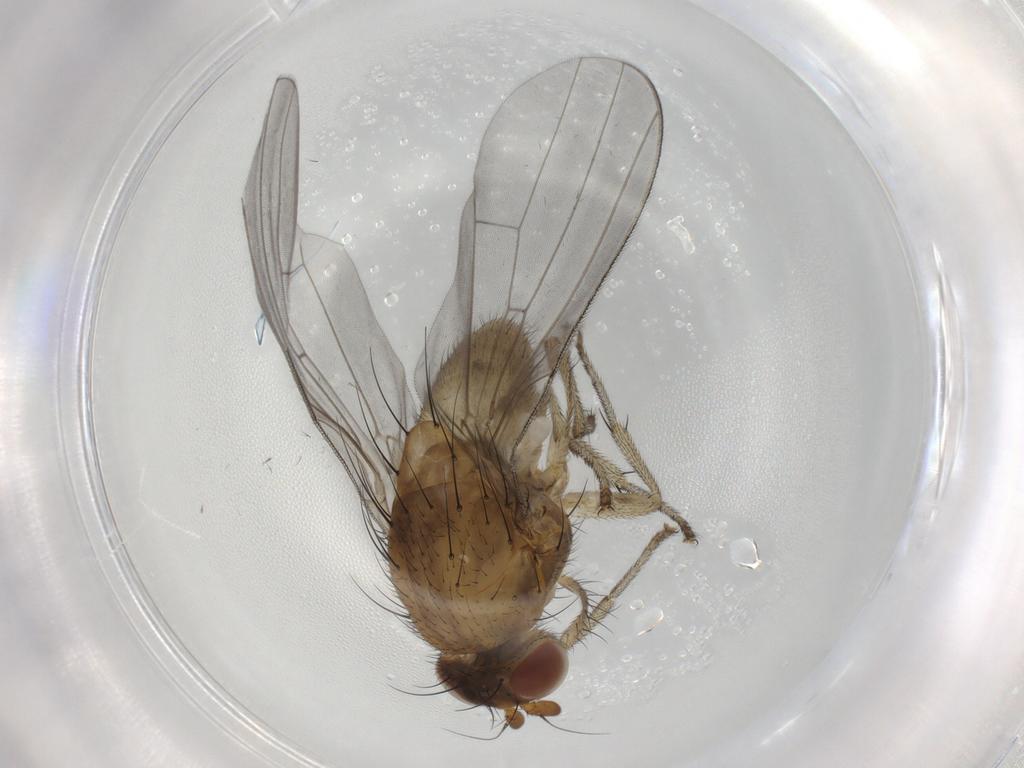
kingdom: Animalia
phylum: Arthropoda
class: Insecta
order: Diptera
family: Lauxaniidae
